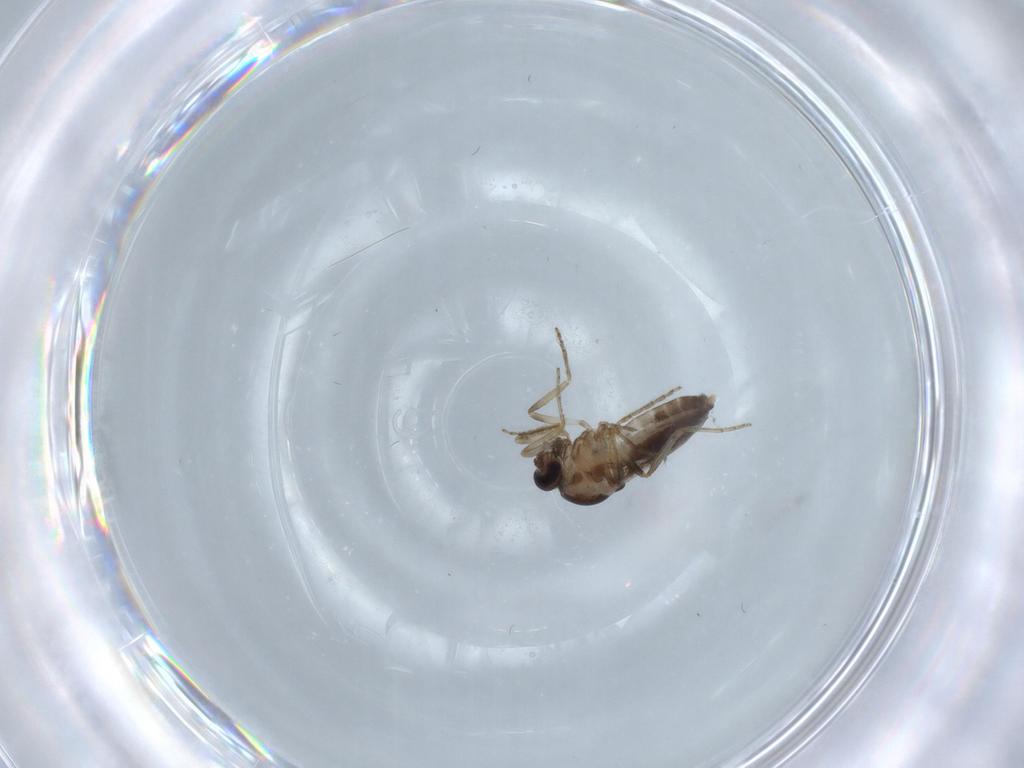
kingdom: Animalia
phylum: Arthropoda
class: Insecta
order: Diptera
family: Ceratopogonidae
